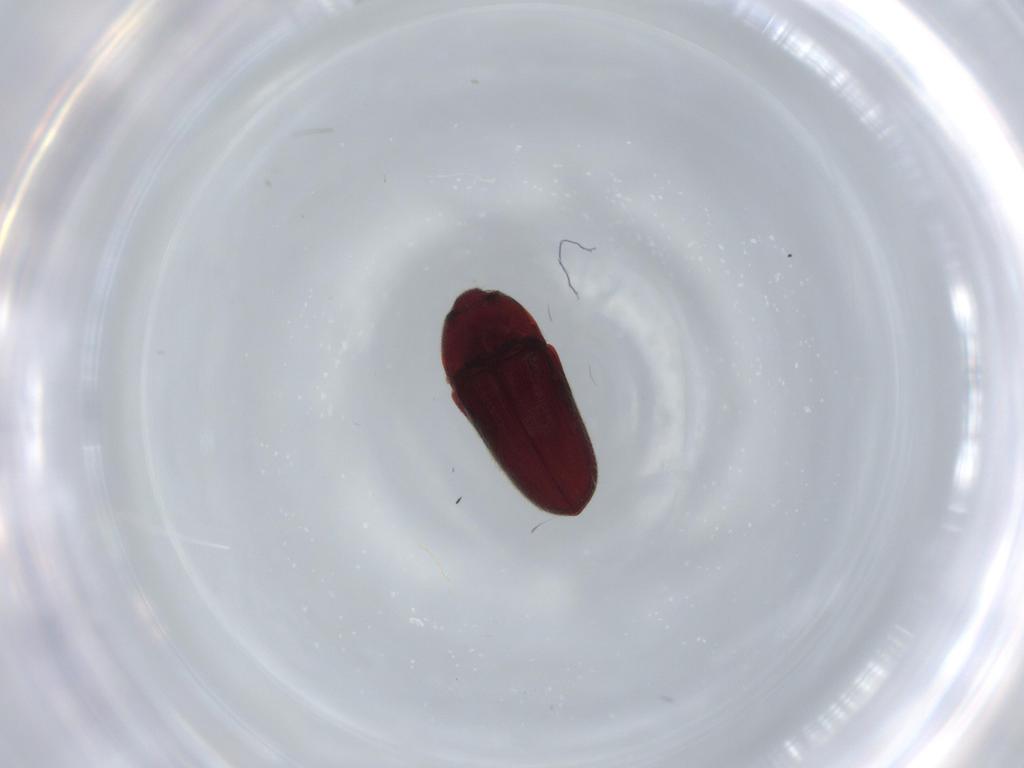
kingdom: Animalia
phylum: Arthropoda
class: Insecta
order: Coleoptera
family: Throscidae
